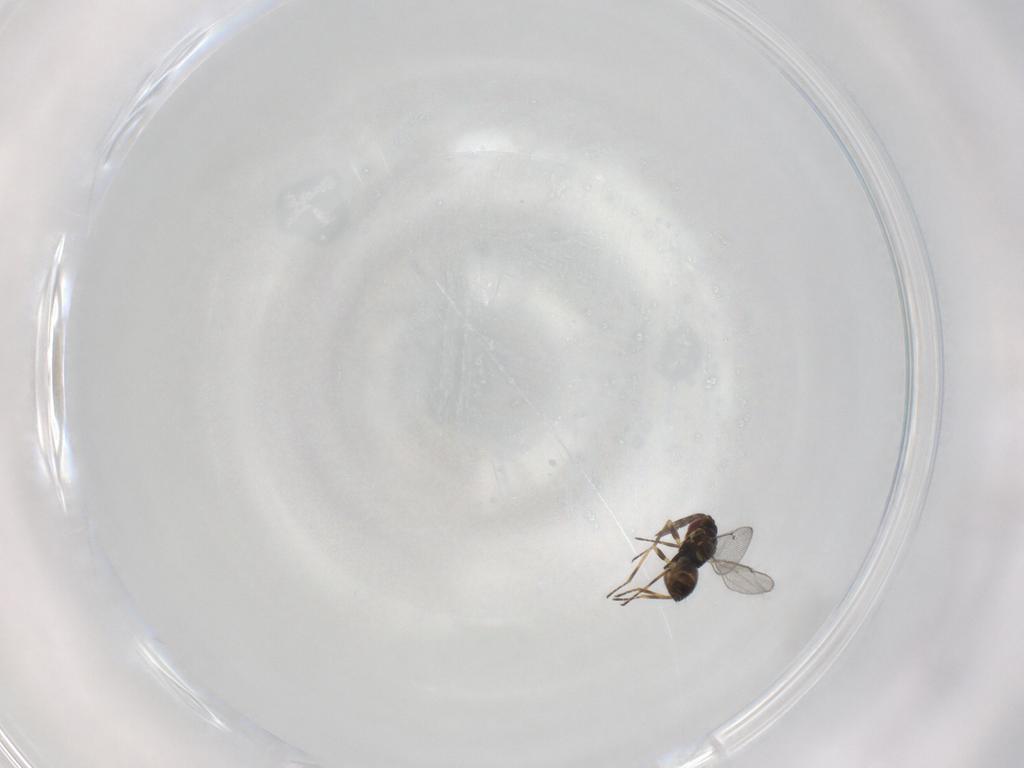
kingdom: Animalia
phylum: Arthropoda
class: Insecta
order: Hymenoptera
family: Eulophidae
